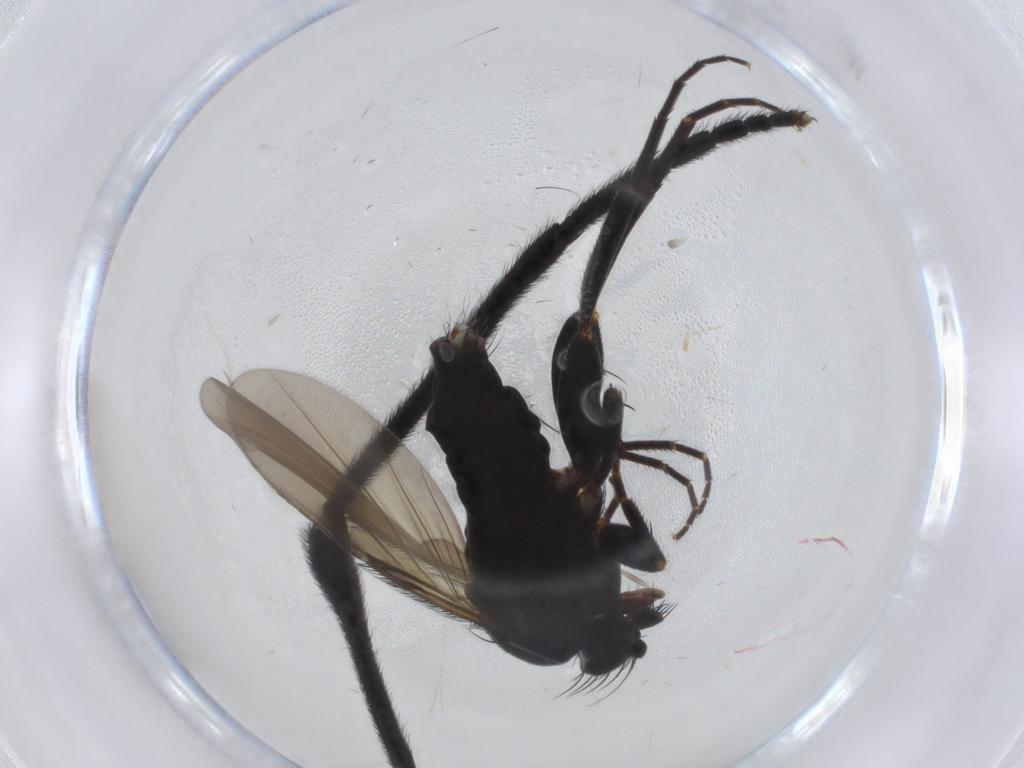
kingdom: Animalia
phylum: Arthropoda
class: Insecta
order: Diptera
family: Bibionidae
